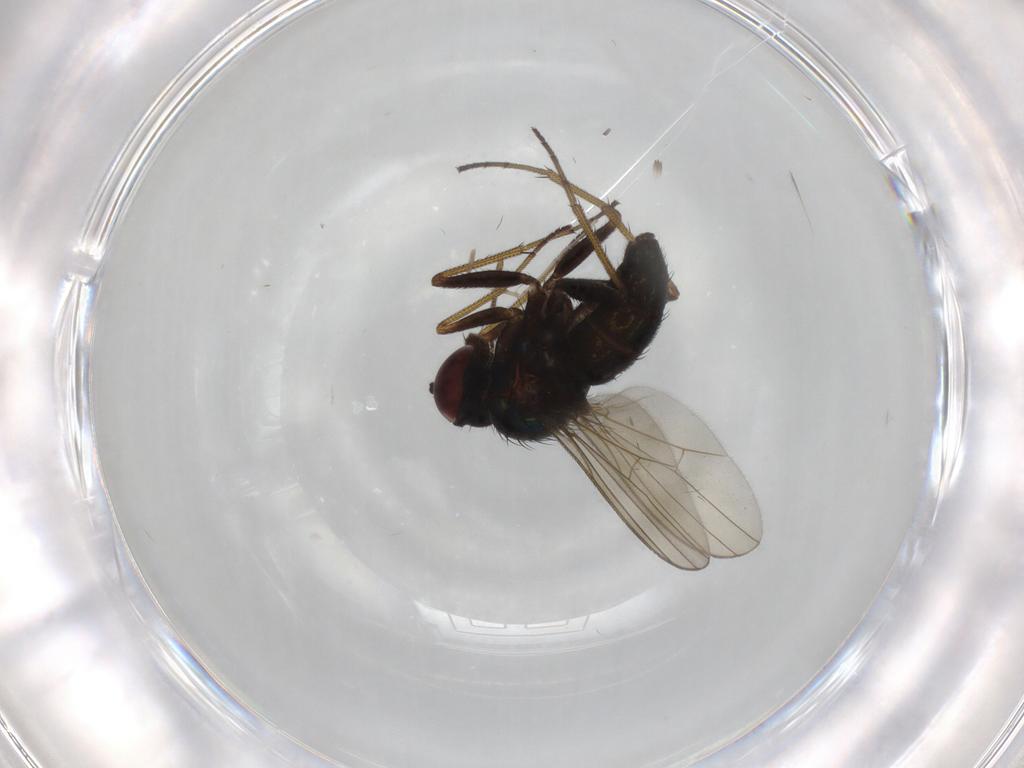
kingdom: Animalia
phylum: Arthropoda
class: Insecta
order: Diptera
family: Dolichopodidae
